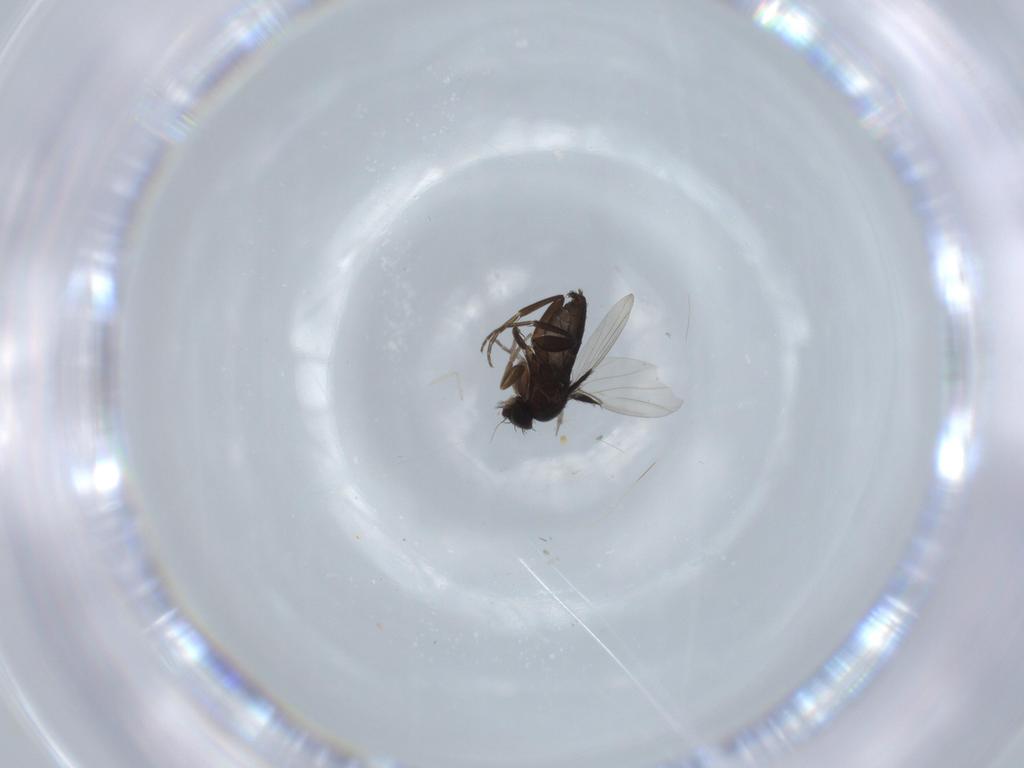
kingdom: Animalia
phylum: Arthropoda
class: Insecta
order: Diptera
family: Phoridae
